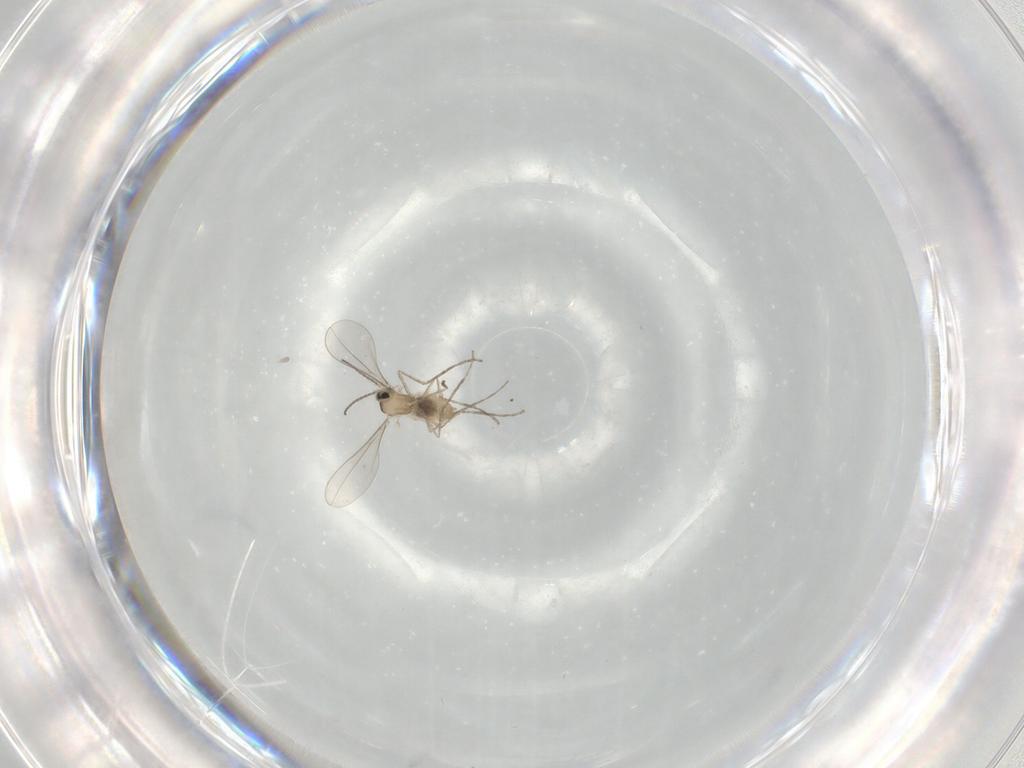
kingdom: Animalia
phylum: Arthropoda
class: Insecta
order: Diptera
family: Cecidomyiidae
